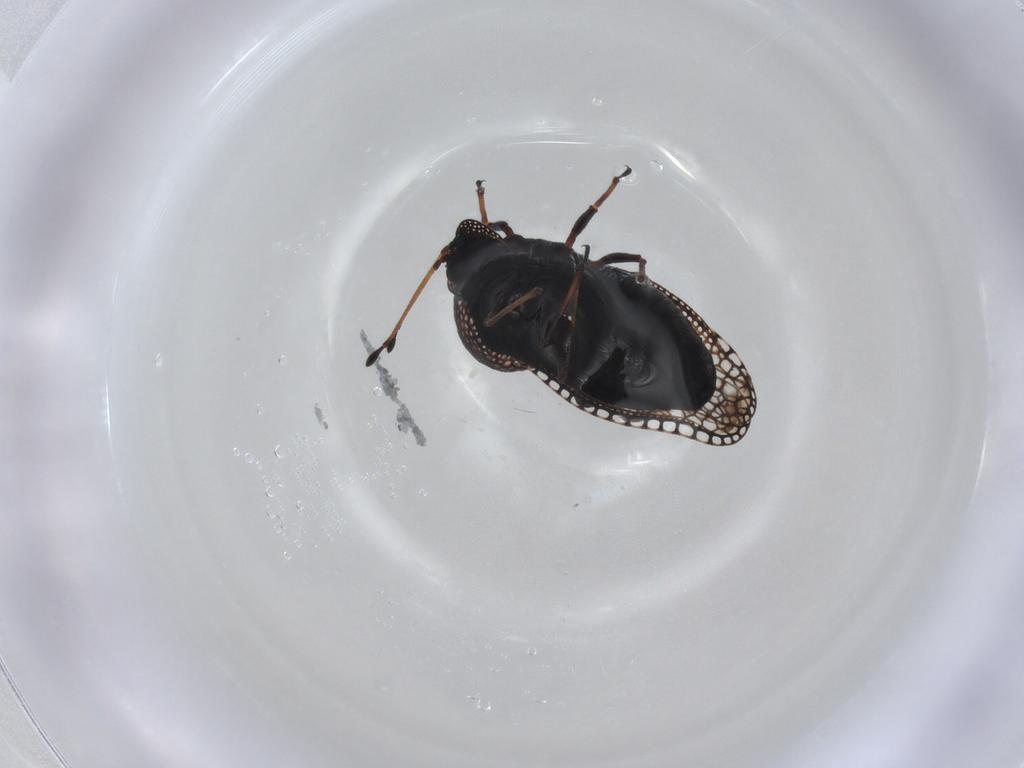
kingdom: Animalia
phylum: Arthropoda
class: Insecta
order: Hemiptera
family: Tingidae
